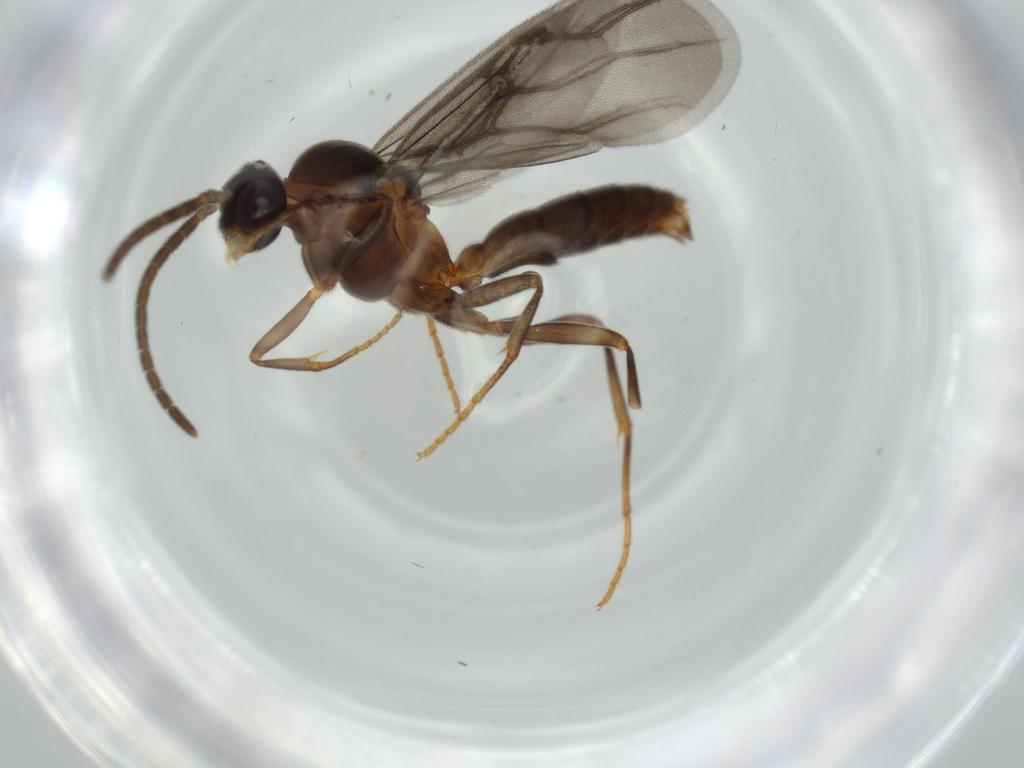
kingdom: Animalia
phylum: Arthropoda
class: Insecta
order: Hymenoptera
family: Formicidae
